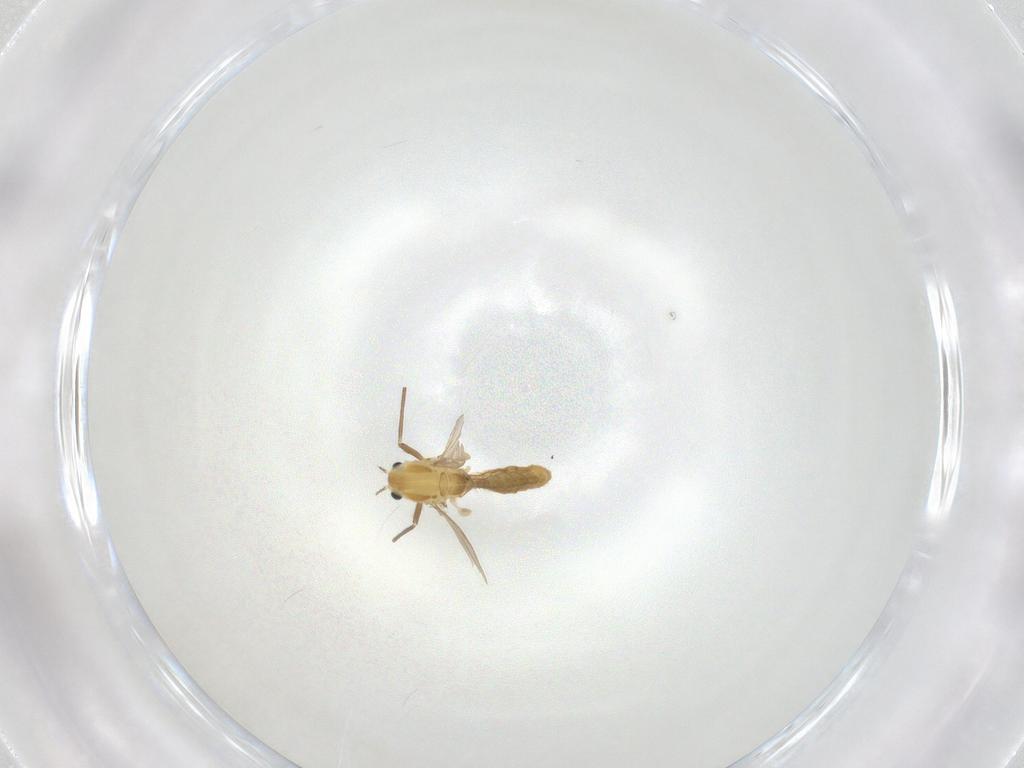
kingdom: Animalia
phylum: Arthropoda
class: Insecta
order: Diptera
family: Chironomidae
